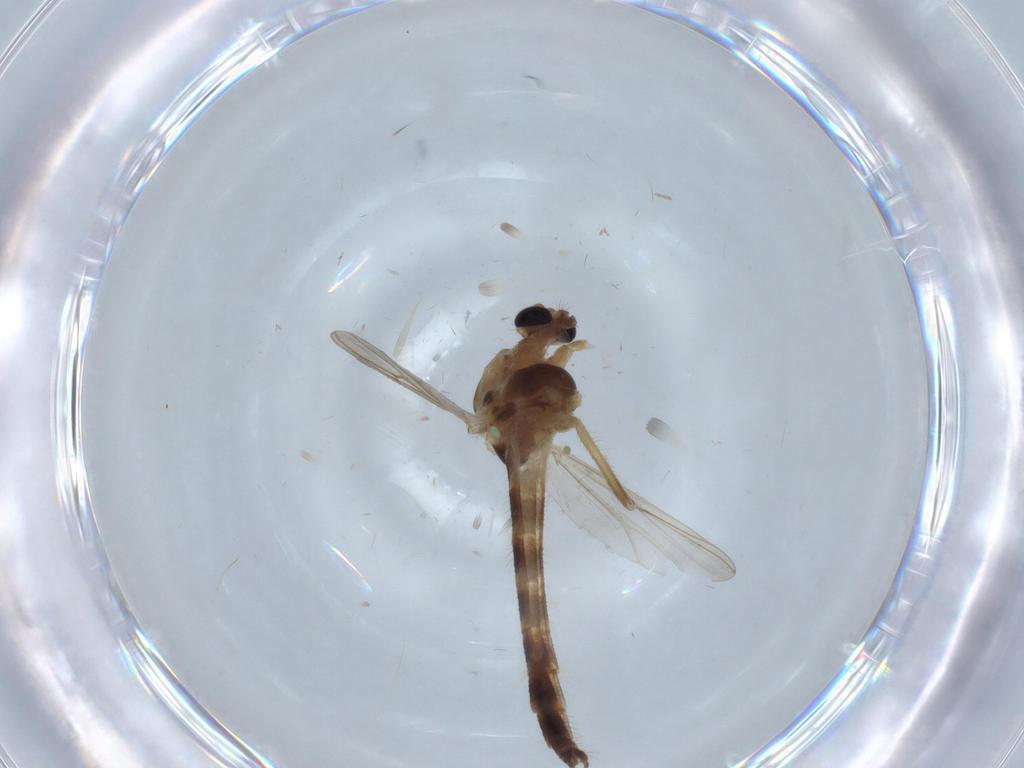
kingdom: Animalia
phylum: Arthropoda
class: Insecta
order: Diptera
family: Chironomidae
